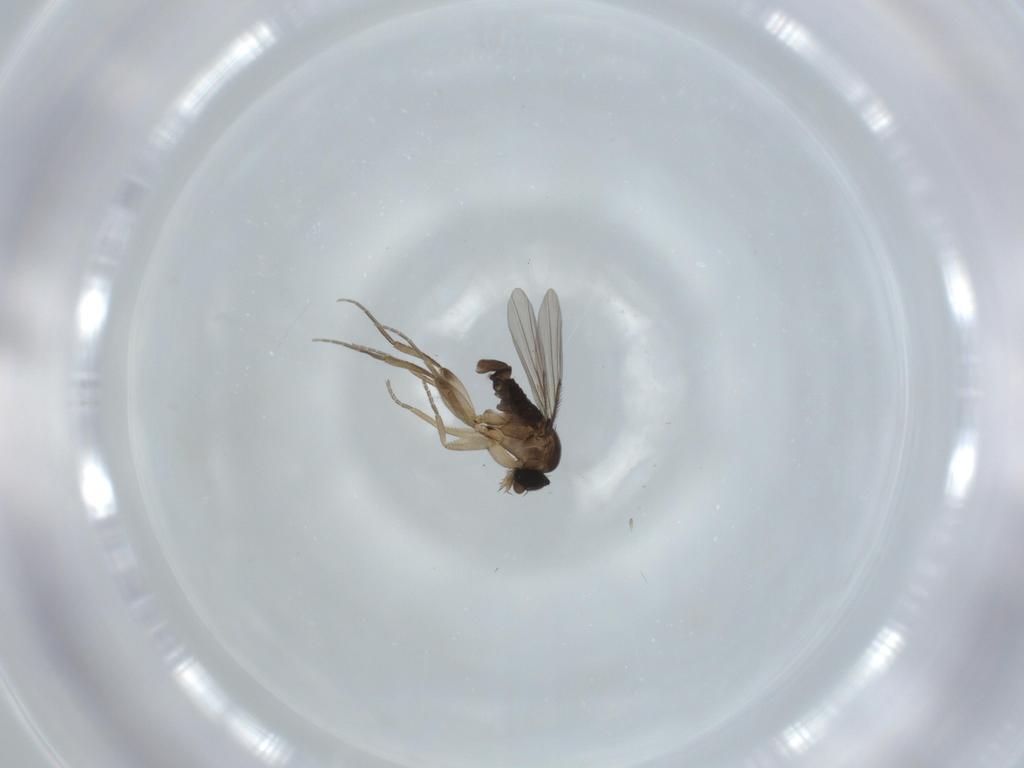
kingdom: Animalia
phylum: Arthropoda
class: Insecta
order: Diptera
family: Phoridae
